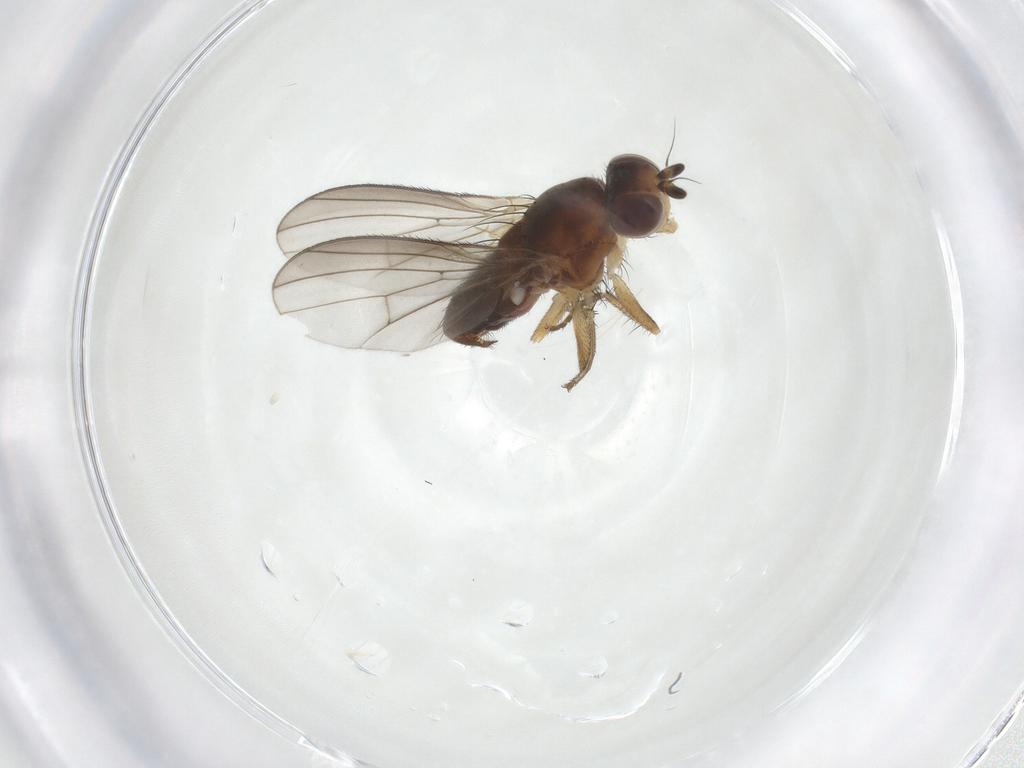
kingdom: Animalia
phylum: Arthropoda
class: Insecta
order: Diptera
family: Heleomyzidae
